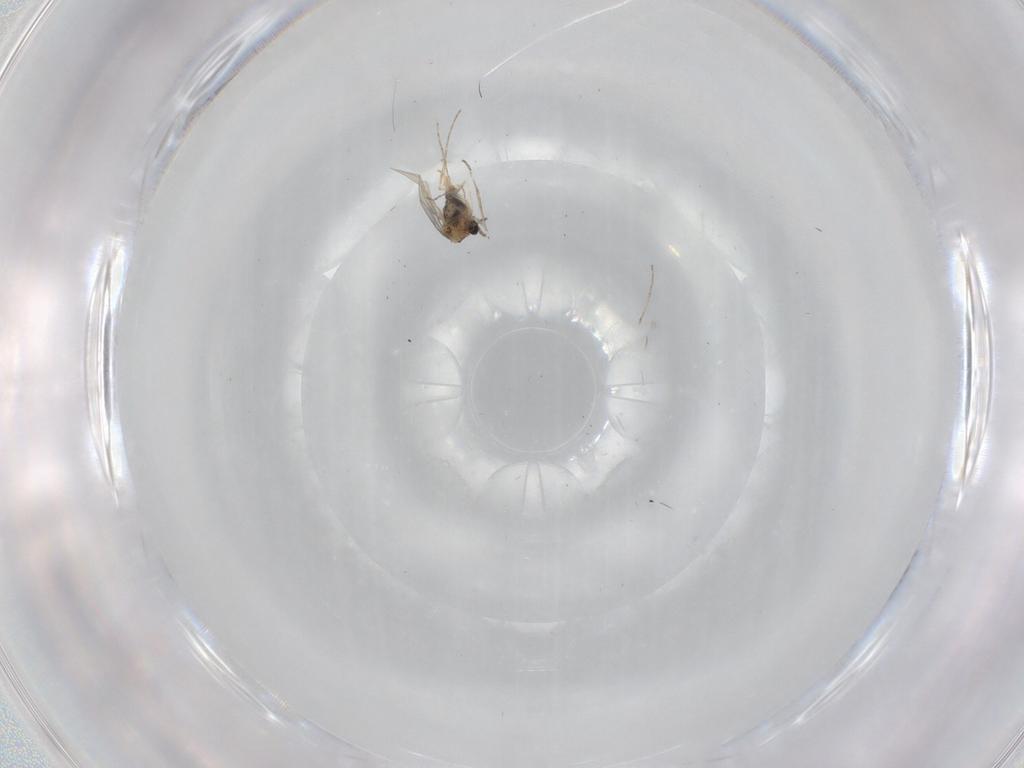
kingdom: Animalia
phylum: Arthropoda
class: Insecta
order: Diptera
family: Cecidomyiidae
